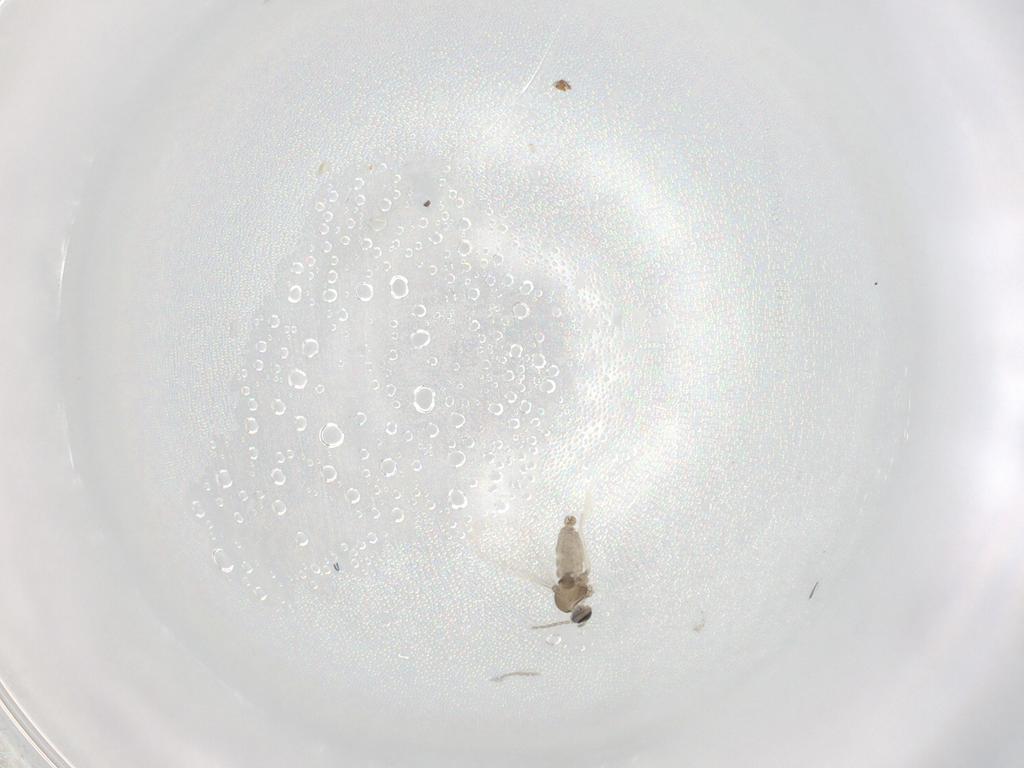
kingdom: Animalia
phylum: Arthropoda
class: Insecta
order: Diptera
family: Cecidomyiidae
